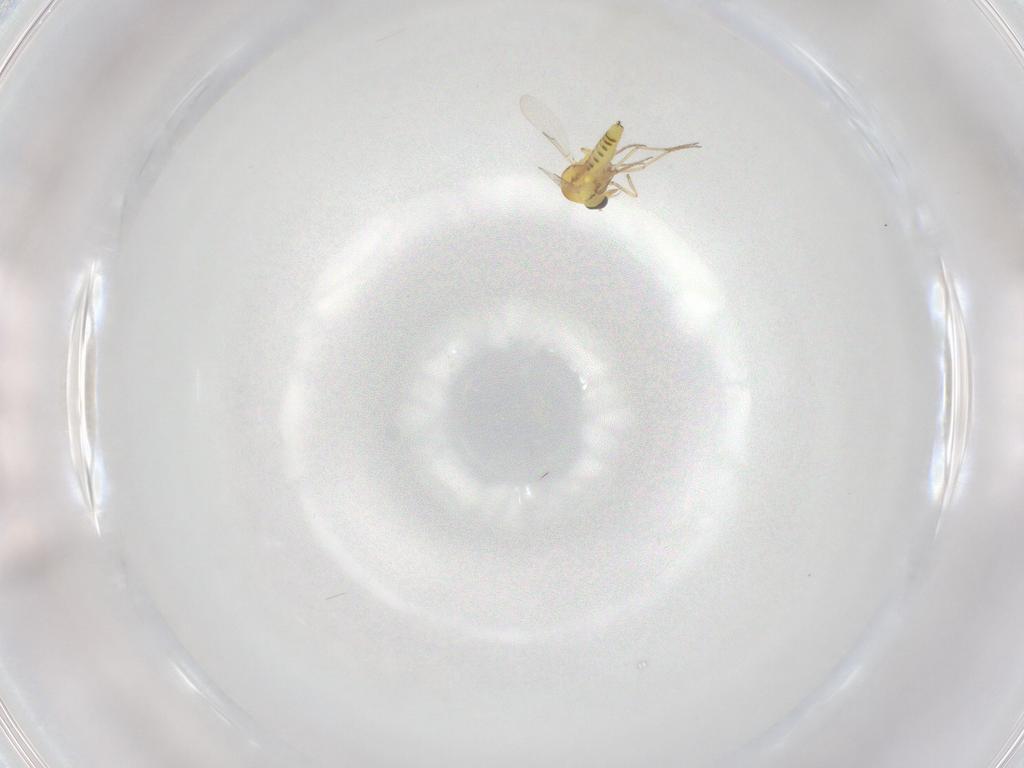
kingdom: Animalia
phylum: Arthropoda
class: Insecta
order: Diptera
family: Ceratopogonidae
